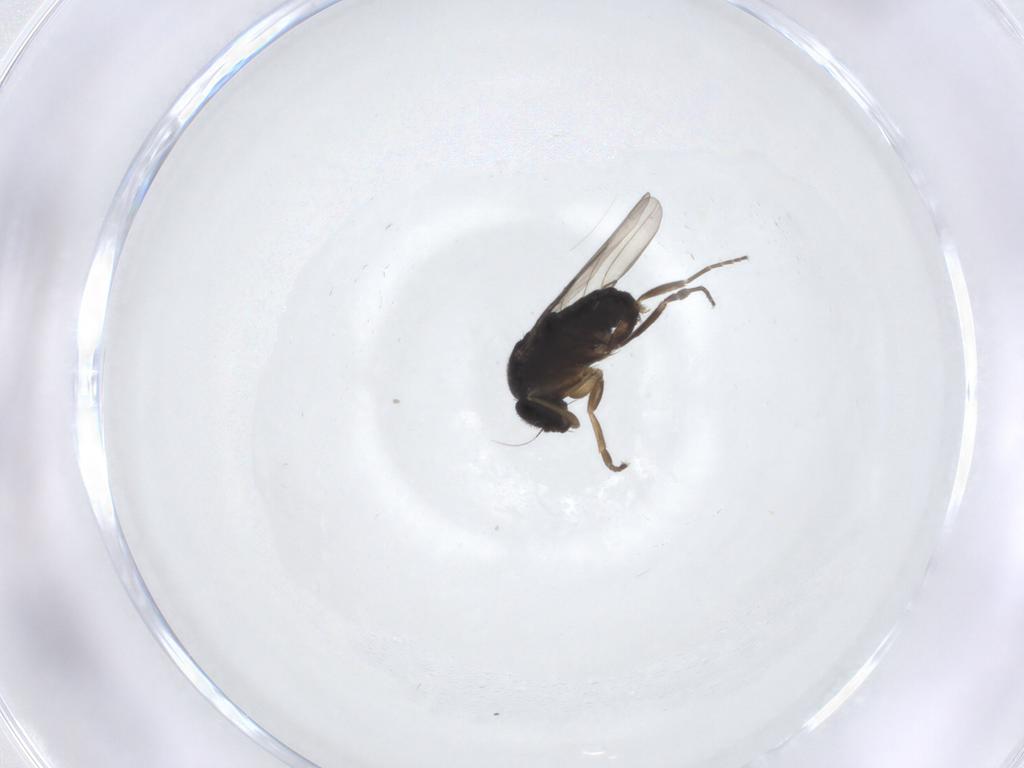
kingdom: Animalia
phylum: Arthropoda
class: Insecta
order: Diptera
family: Phoridae
